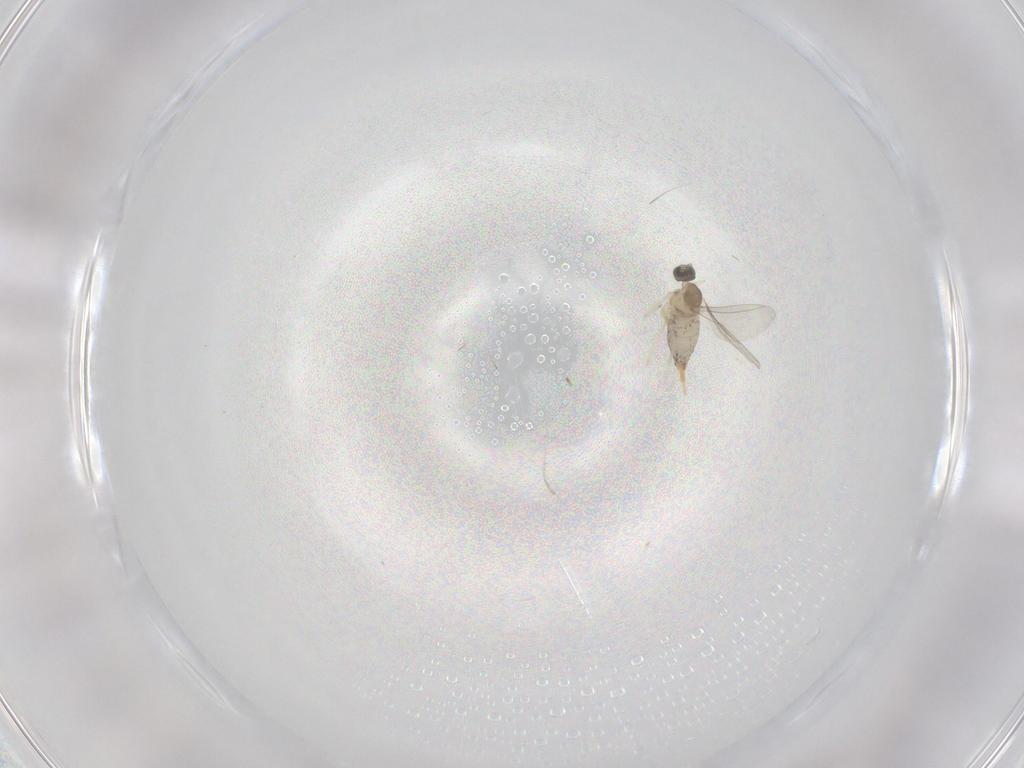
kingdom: Animalia
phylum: Arthropoda
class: Insecta
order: Diptera
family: Cecidomyiidae
